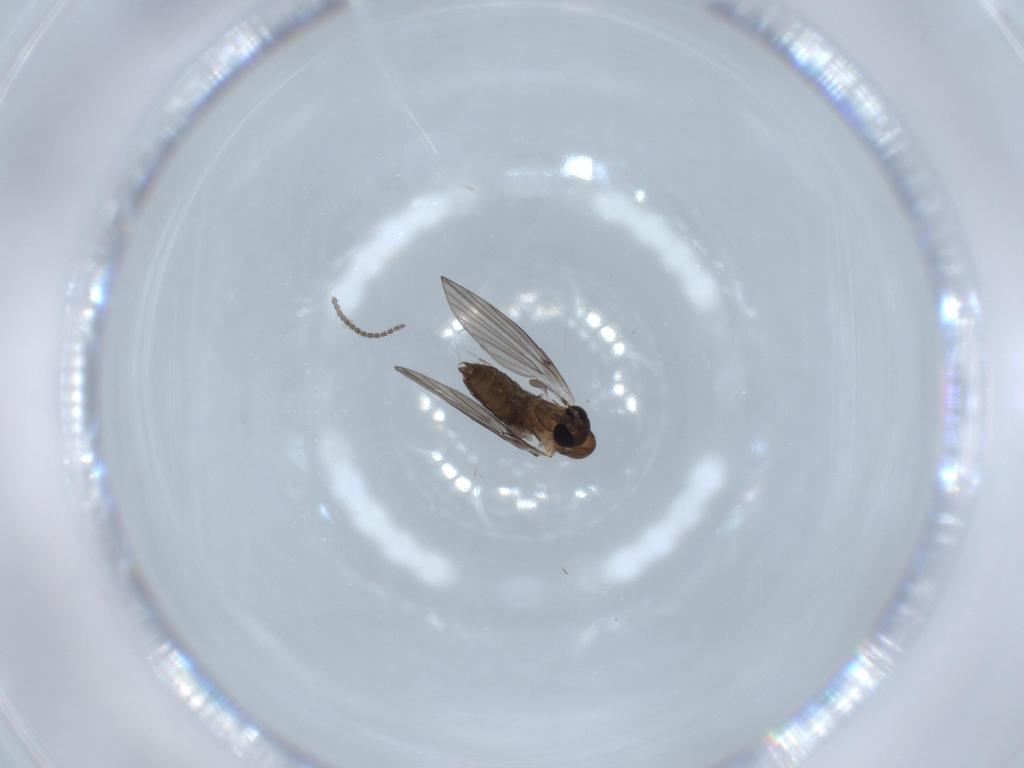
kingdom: Animalia
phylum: Arthropoda
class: Insecta
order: Diptera
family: Psychodidae
